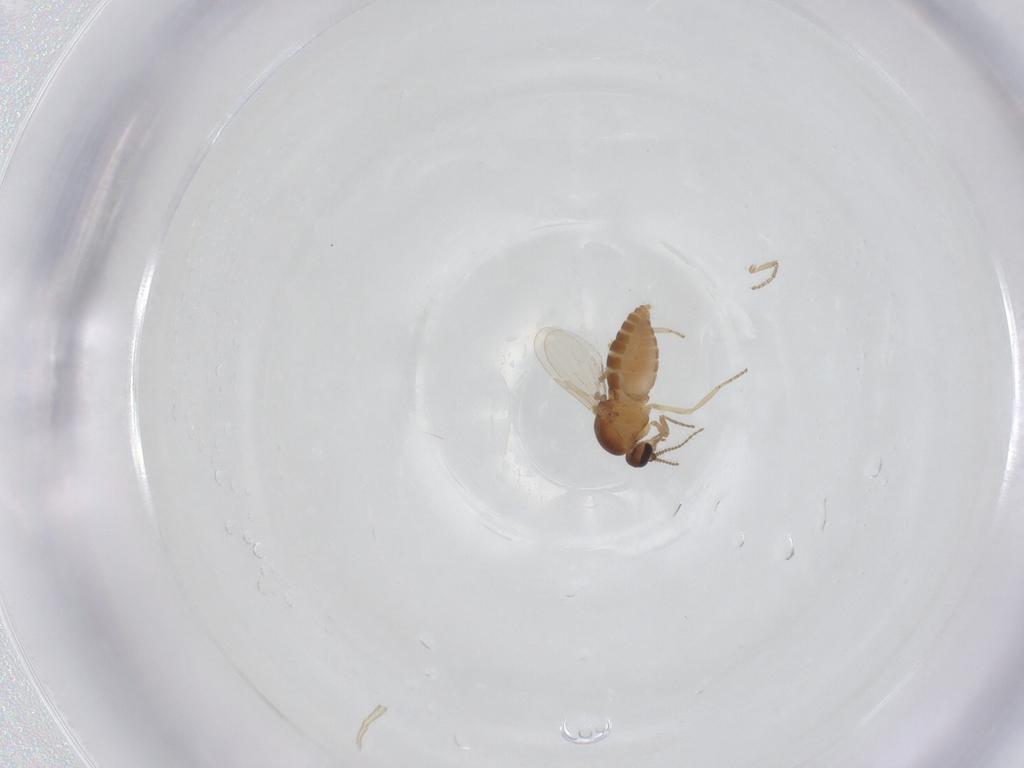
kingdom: Animalia
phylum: Arthropoda
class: Insecta
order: Diptera
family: Ceratopogonidae
